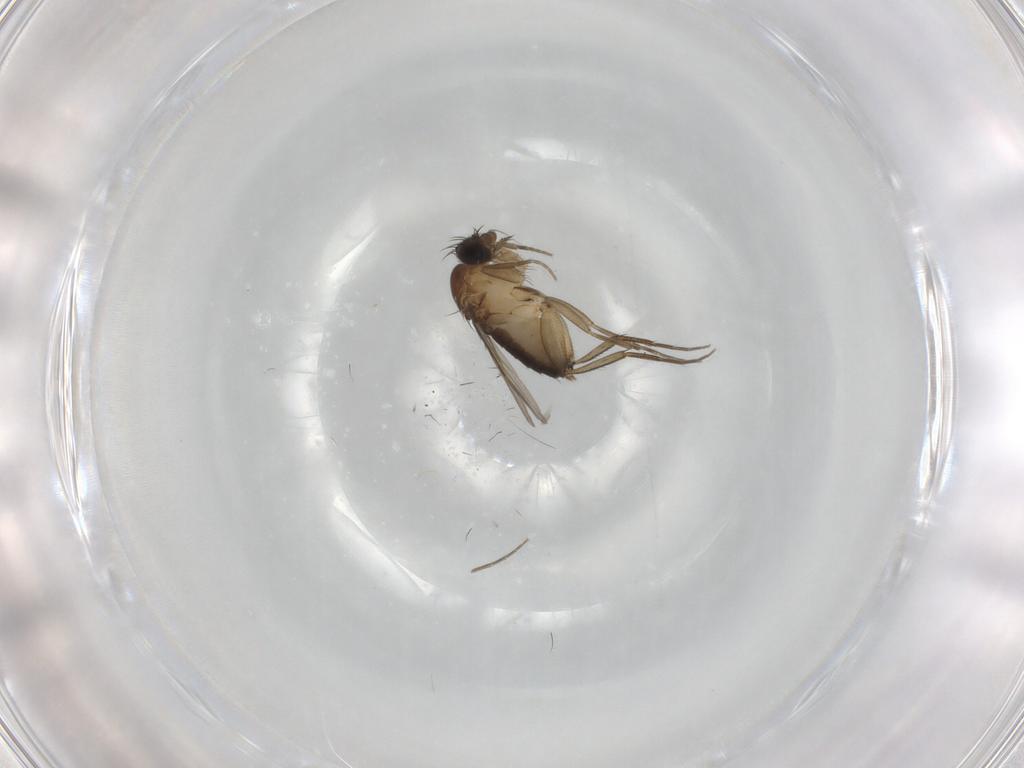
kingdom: Animalia
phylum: Arthropoda
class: Insecta
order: Diptera
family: Phoridae
